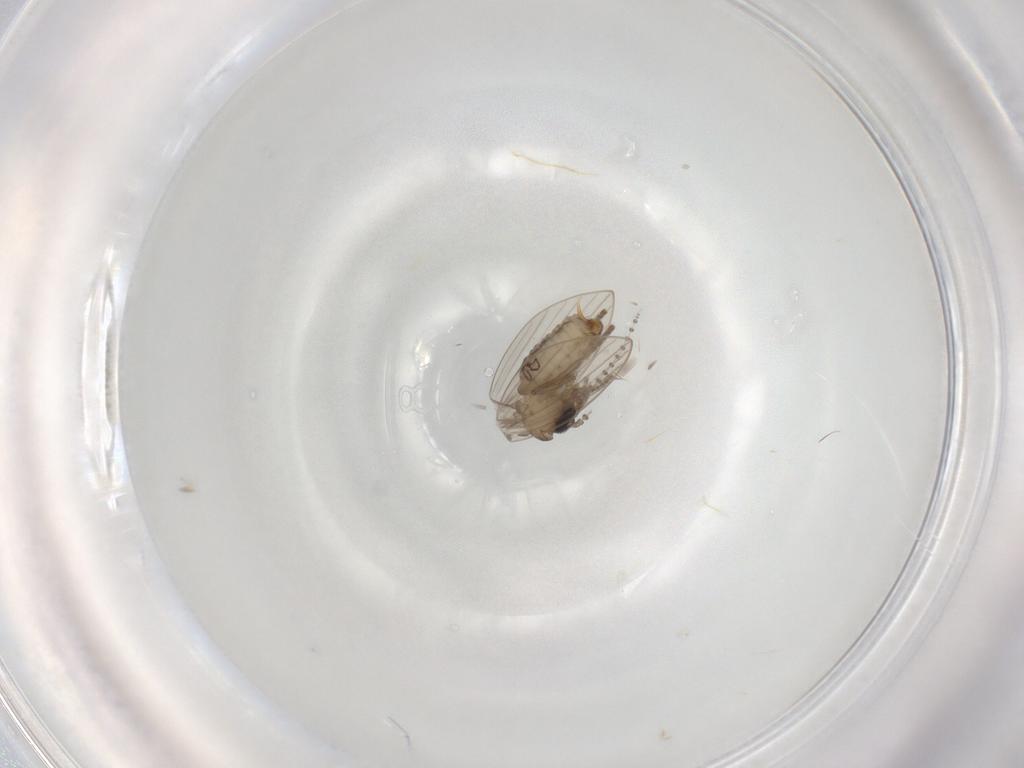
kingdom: Animalia
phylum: Arthropoda
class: Insecta
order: Diptera
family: Psychodidae
